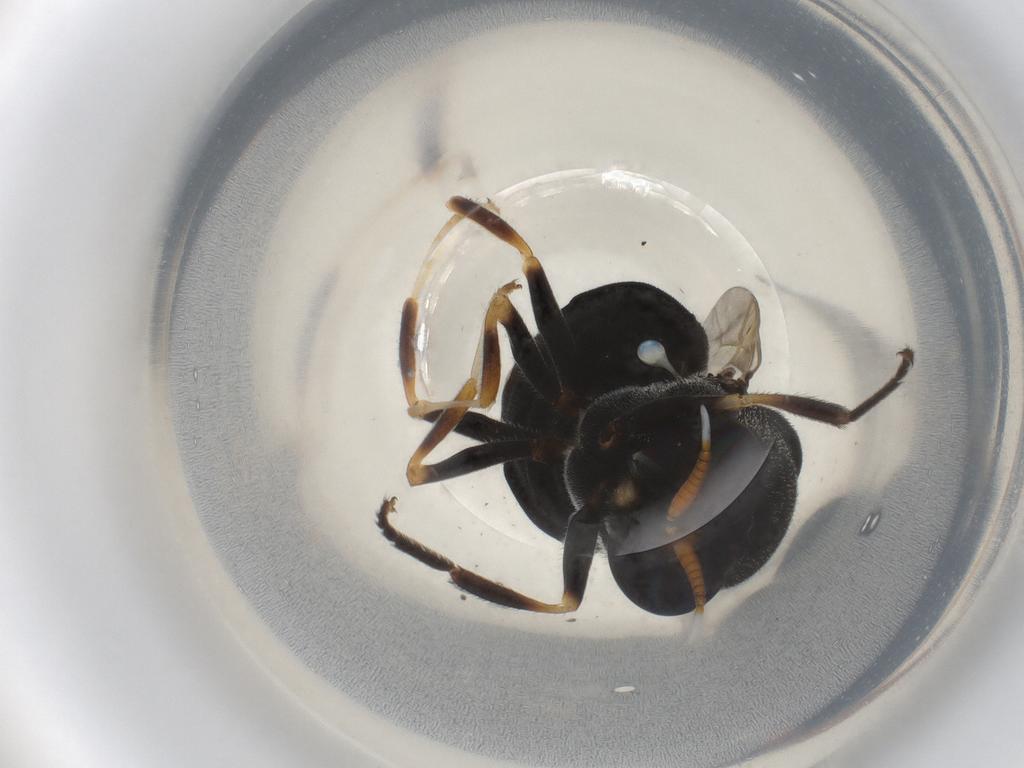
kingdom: Animalia
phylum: Arthropoda
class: Insecta
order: Diptera
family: Stratiomyidae
